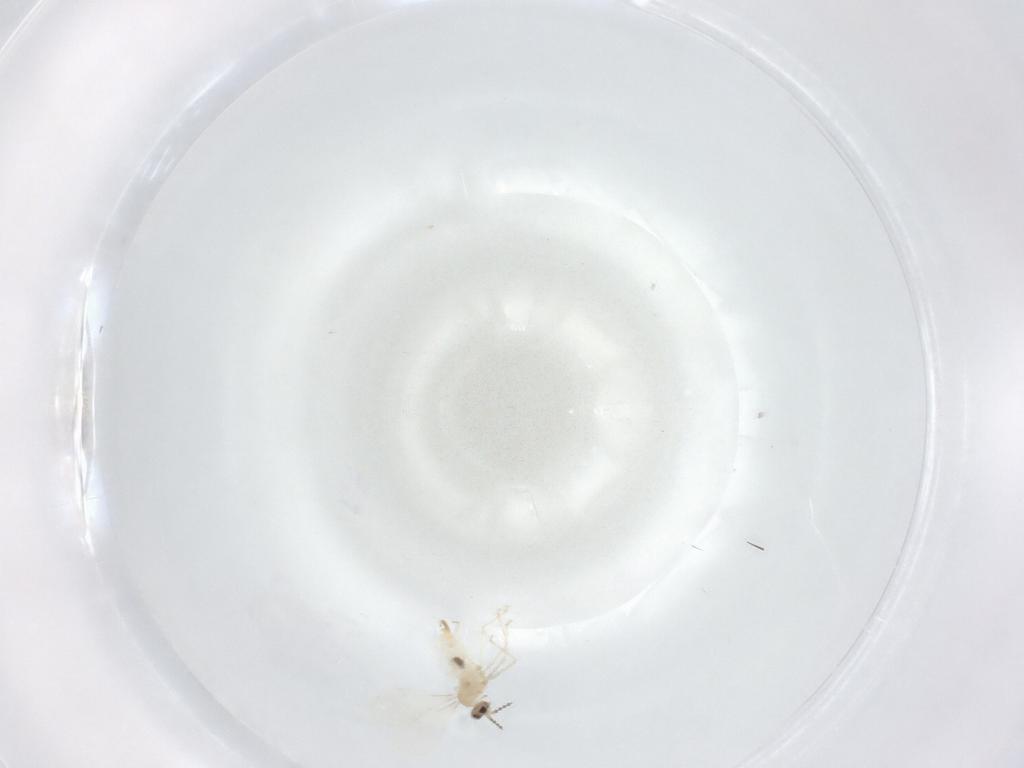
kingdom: Animalia
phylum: Arthropoda
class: Insecta
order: Diptera
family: Cecidomyiidae
